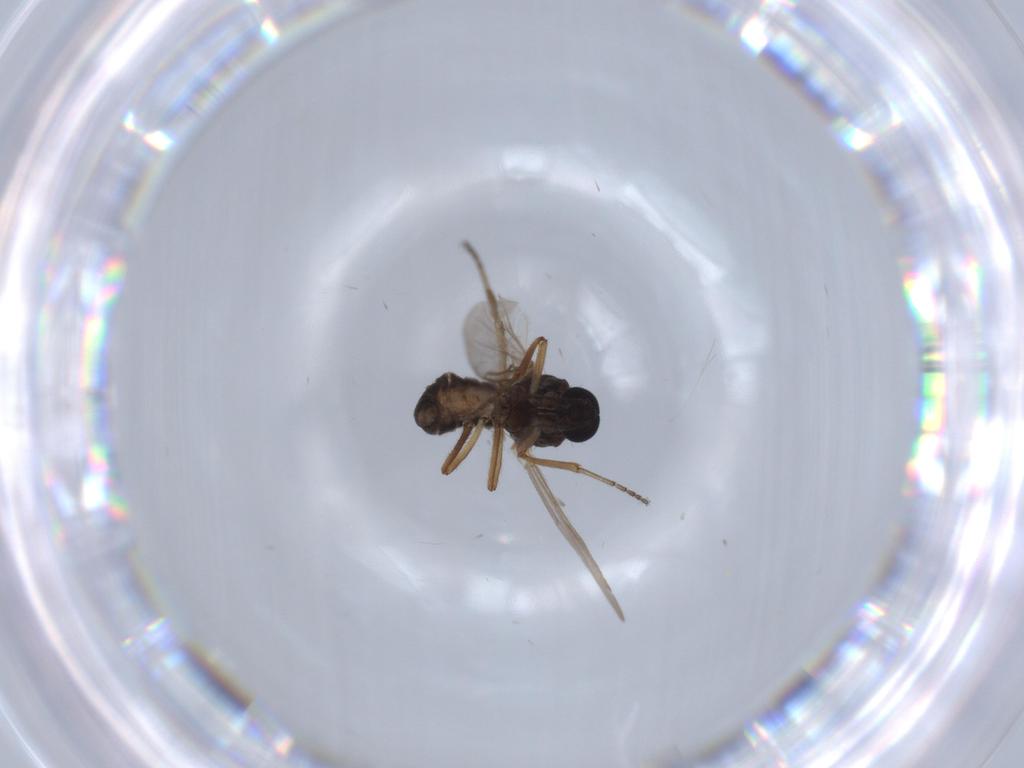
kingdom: Animalia
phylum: Arthropoda
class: Insecta
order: Diptera
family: Ceratopogonidae
